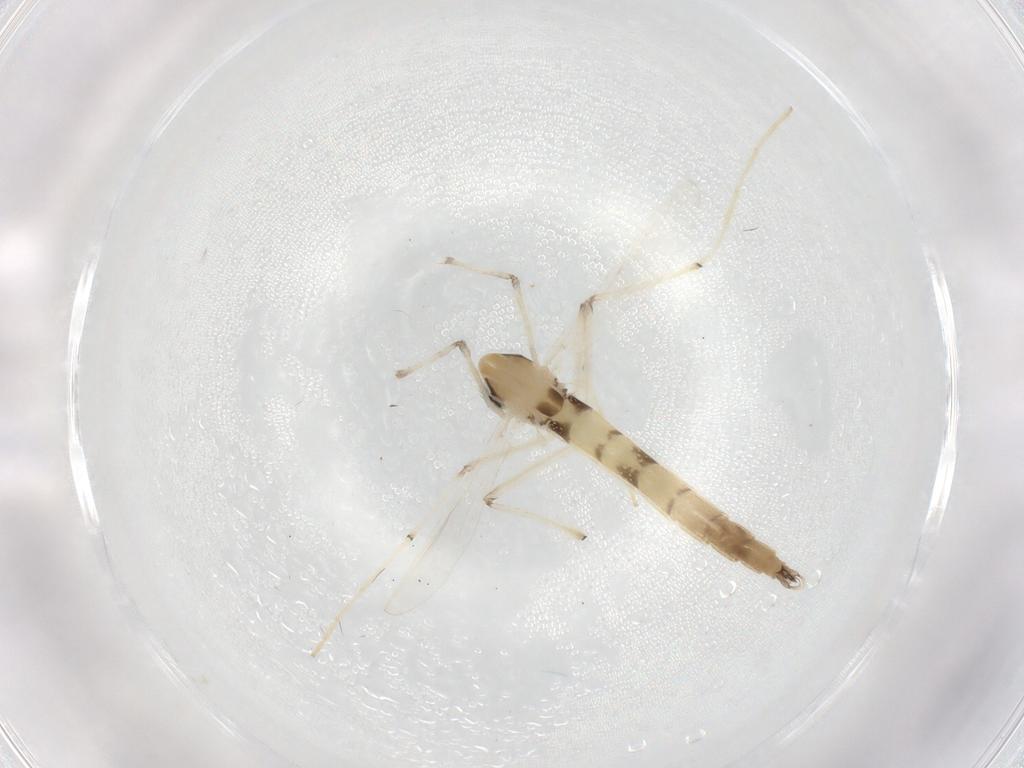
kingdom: Animalia
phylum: Arthropoda
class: Insecta
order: Diptera
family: Chironomidae
